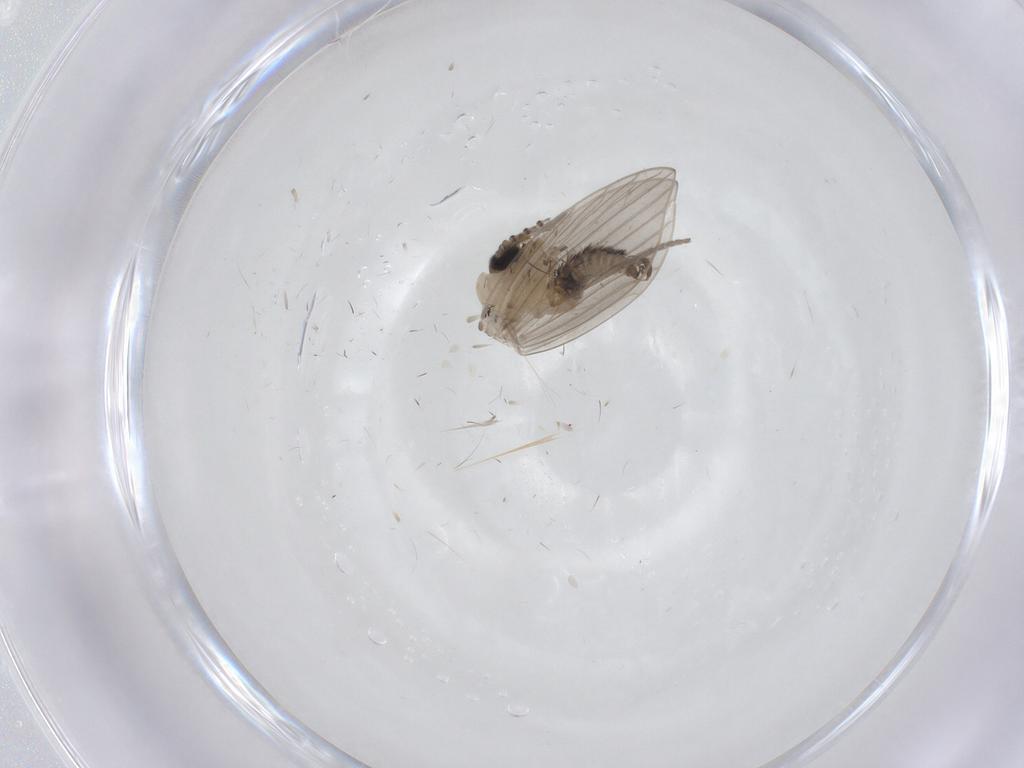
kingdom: Animalia
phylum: Arthropoda
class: Insecta
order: Diptera
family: Psychodidae
